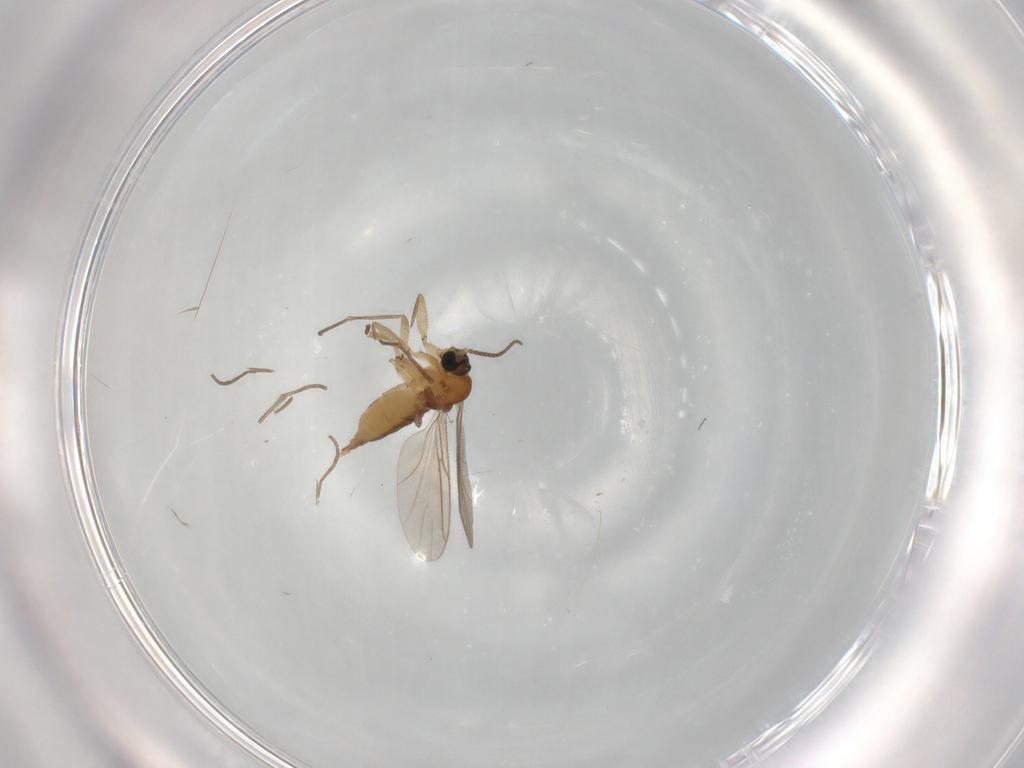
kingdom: Animalia
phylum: Arthropoda
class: Insecta
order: Diptera
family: Sciaridae
